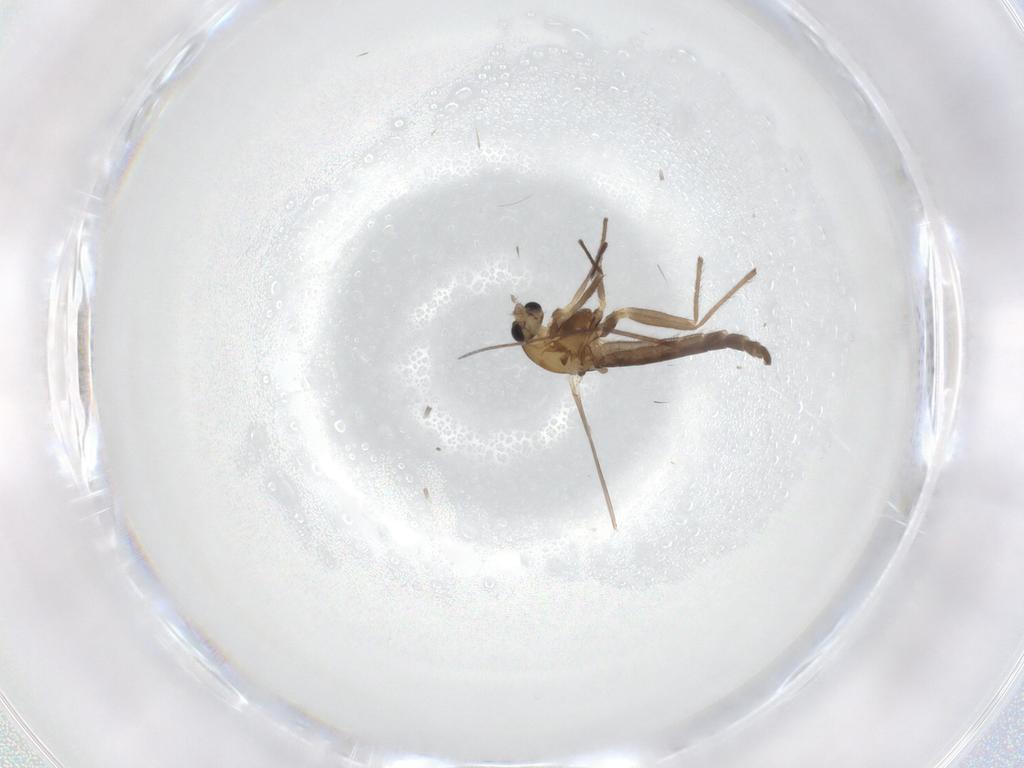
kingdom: Animalia
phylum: Arthropoda
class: Insecta
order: Diptera
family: Chironomidae
